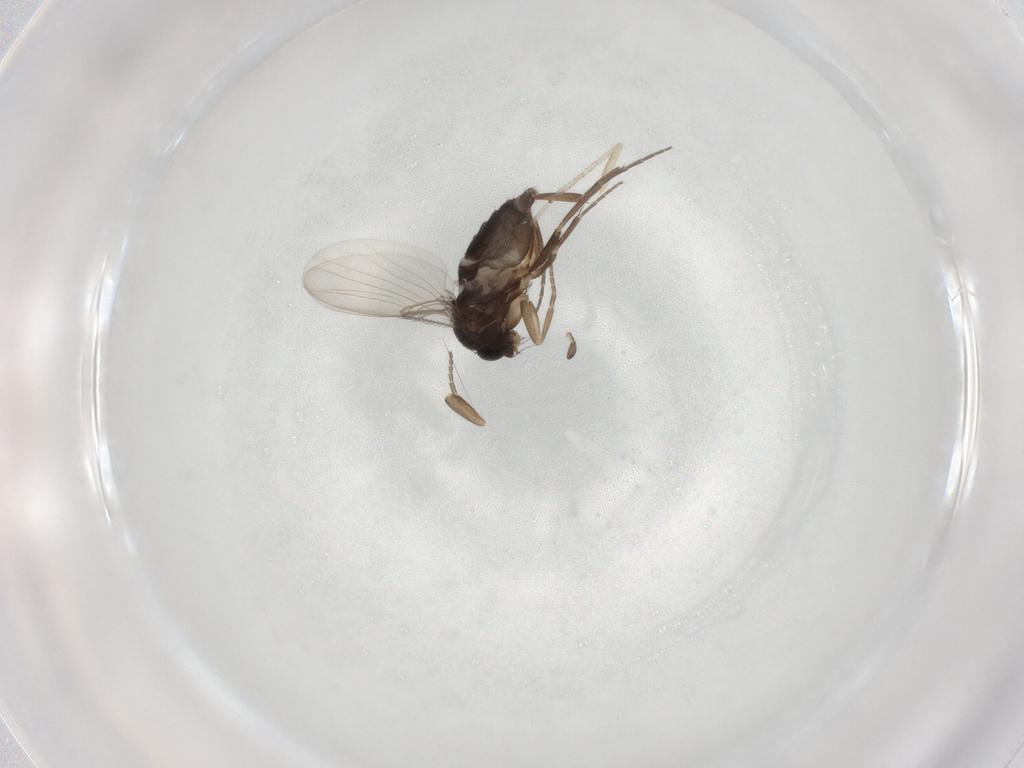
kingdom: Animalia
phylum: Arthropoda
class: Insecta
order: Diptera
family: Phoridae
